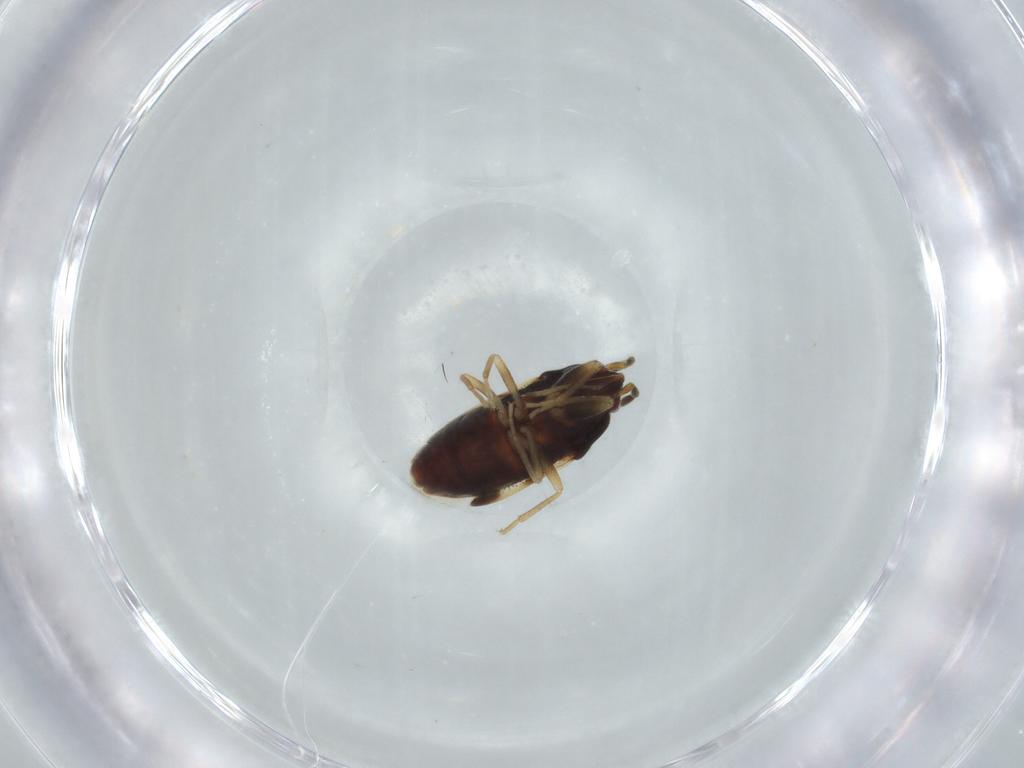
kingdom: Animalia
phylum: Arthropoda
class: Insecta
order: Hemiptera
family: Rhyparochromidae
